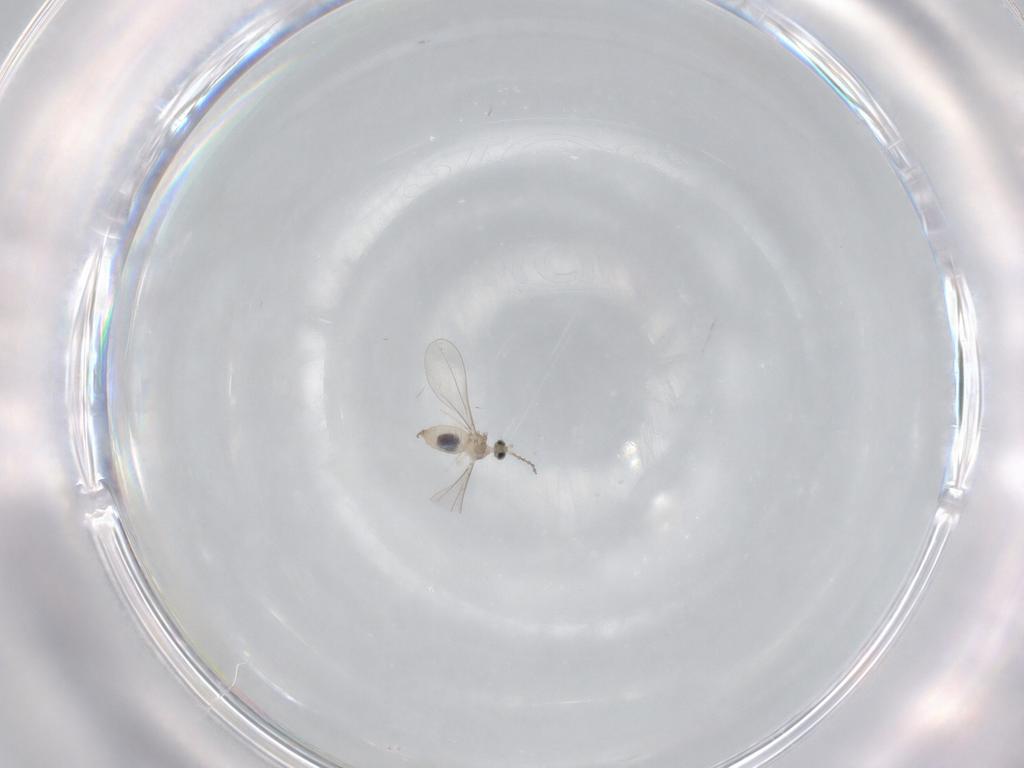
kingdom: Animalia
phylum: Arthropoda
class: Insecta
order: Diptera
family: Cecidomyiidae
